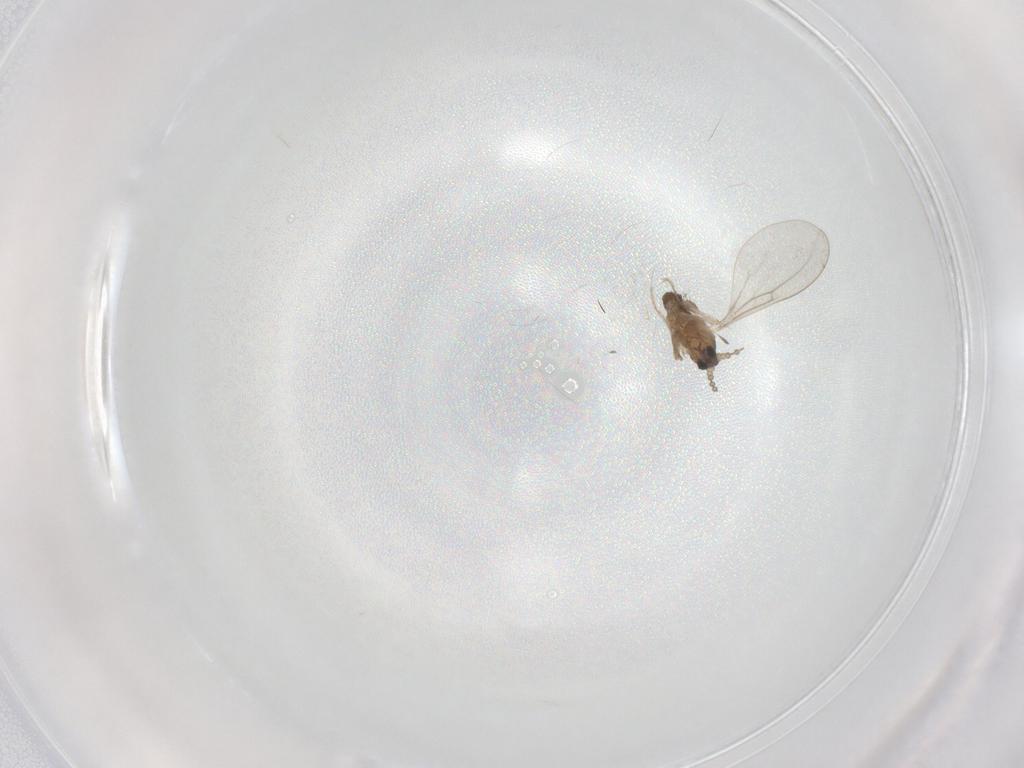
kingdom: Animalia
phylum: Arthropoda
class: Insecta
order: Diptera
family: Cecidomyiidae
